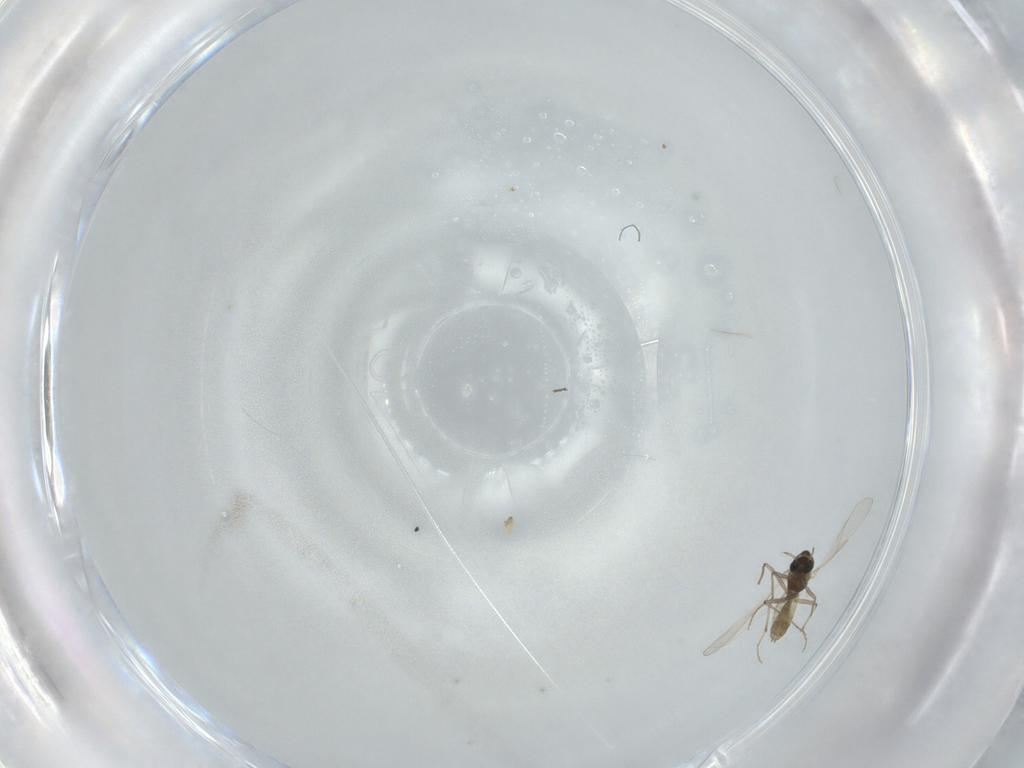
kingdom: Animalia
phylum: Arthropoda
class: Insecta
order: Diptera
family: Chironomidae
